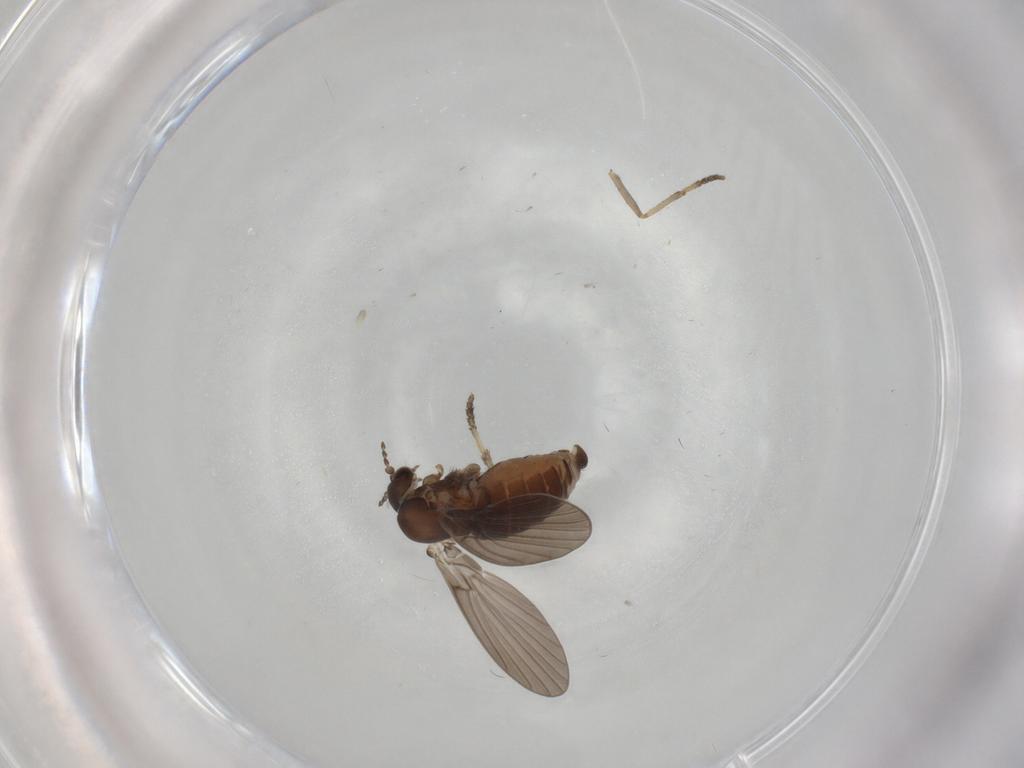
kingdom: Animalia
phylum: Arthropoda
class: Insecta
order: Diptera
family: Psychodidae
